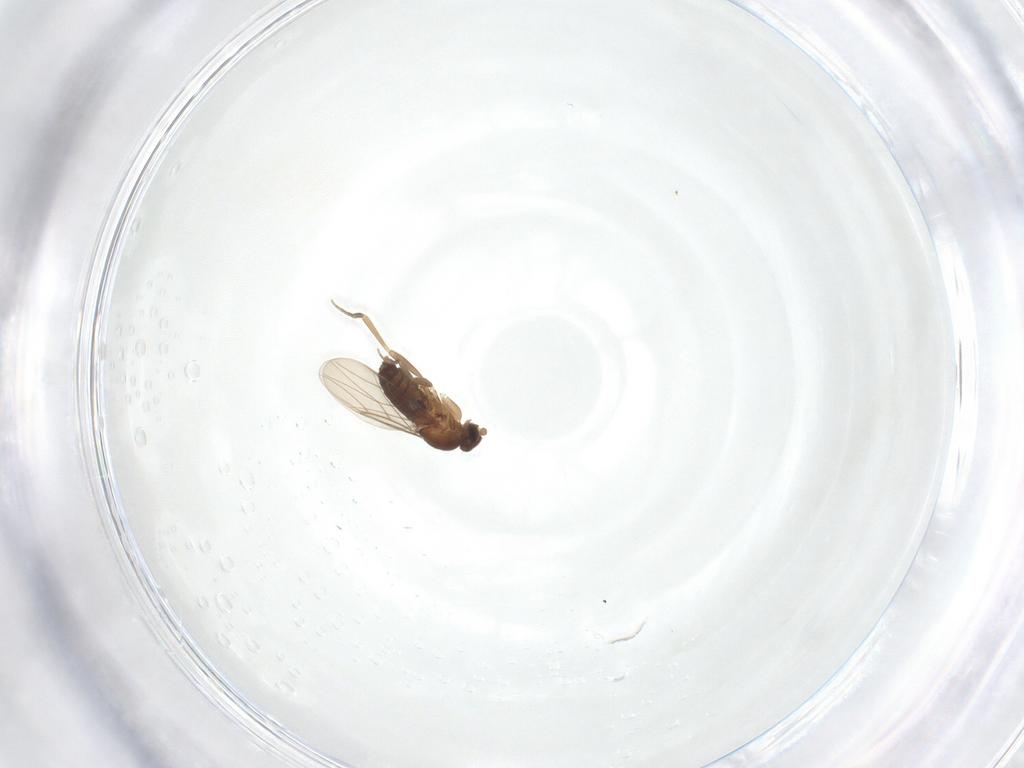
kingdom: Animalia
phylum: Arthropoda
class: Insecta
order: Diptera
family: Phoridae
